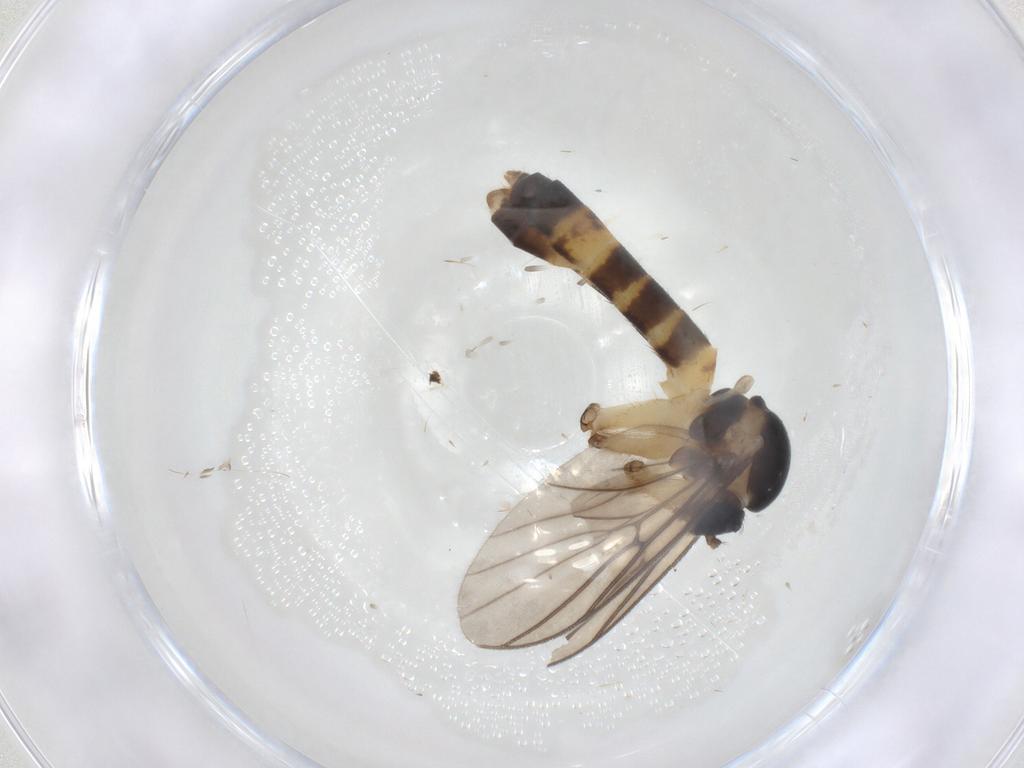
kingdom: Animalia
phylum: Arthropoda
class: Insecta
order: Diptera
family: Mycetophilidae
